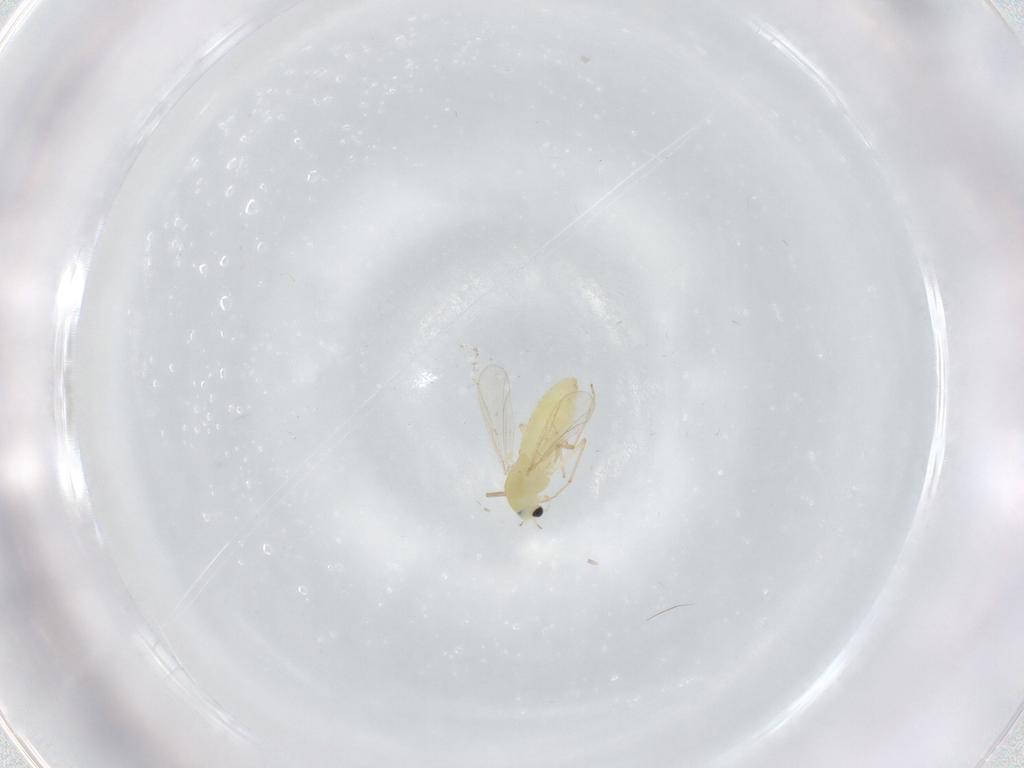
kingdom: Animalia
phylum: Arthropoda
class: Insecta
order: Diptera
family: Chironomidae
